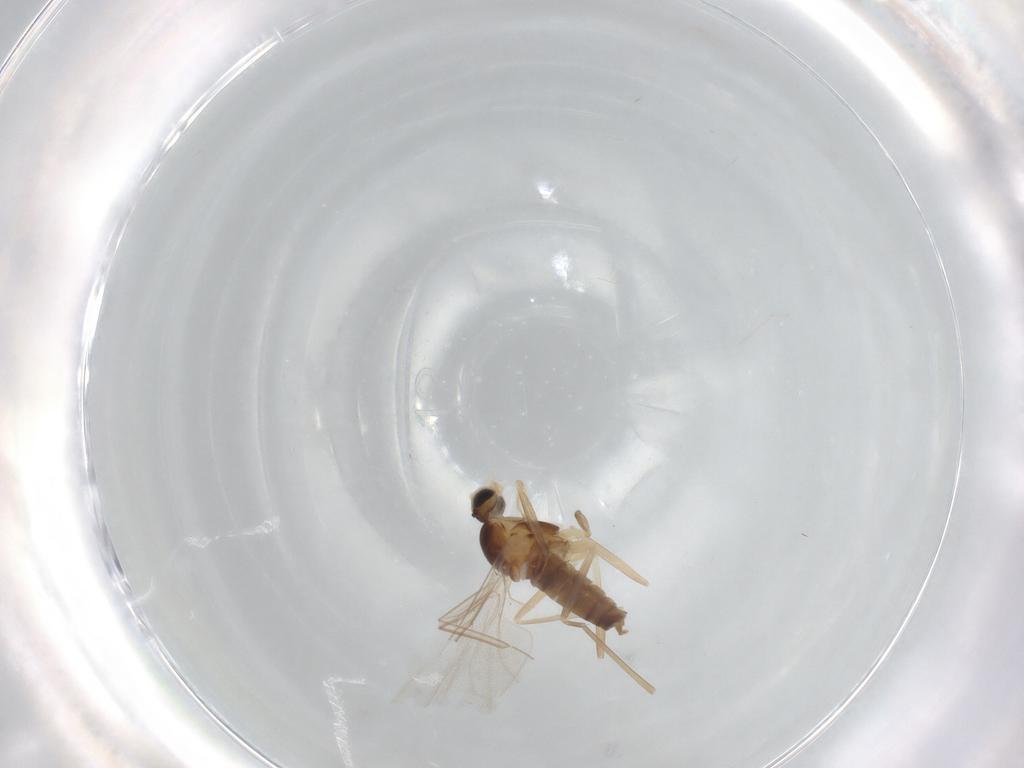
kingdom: Animalia
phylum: Arthropoda
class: Insecta
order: Diptera
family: Cecidomyiidae
